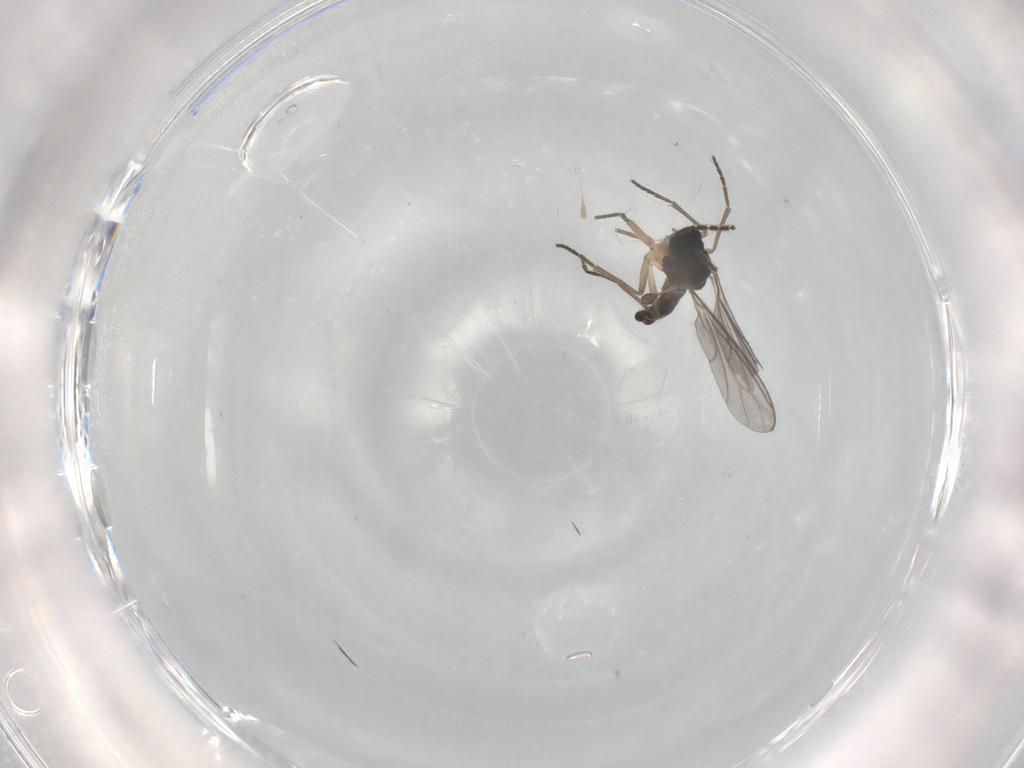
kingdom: Animalia
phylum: Arthropoda
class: Insecta
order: Diptera
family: Sciaridae
